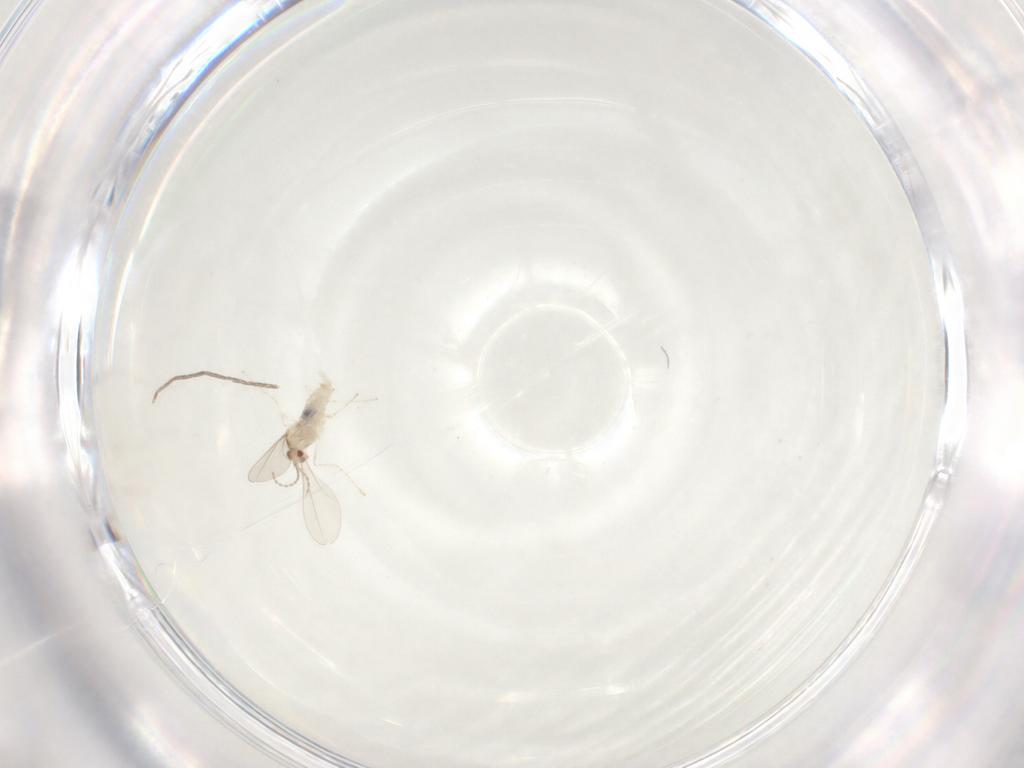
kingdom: Animalia
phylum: Arthropoda
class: Insecta
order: Diptera
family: Cecidomyiidae
